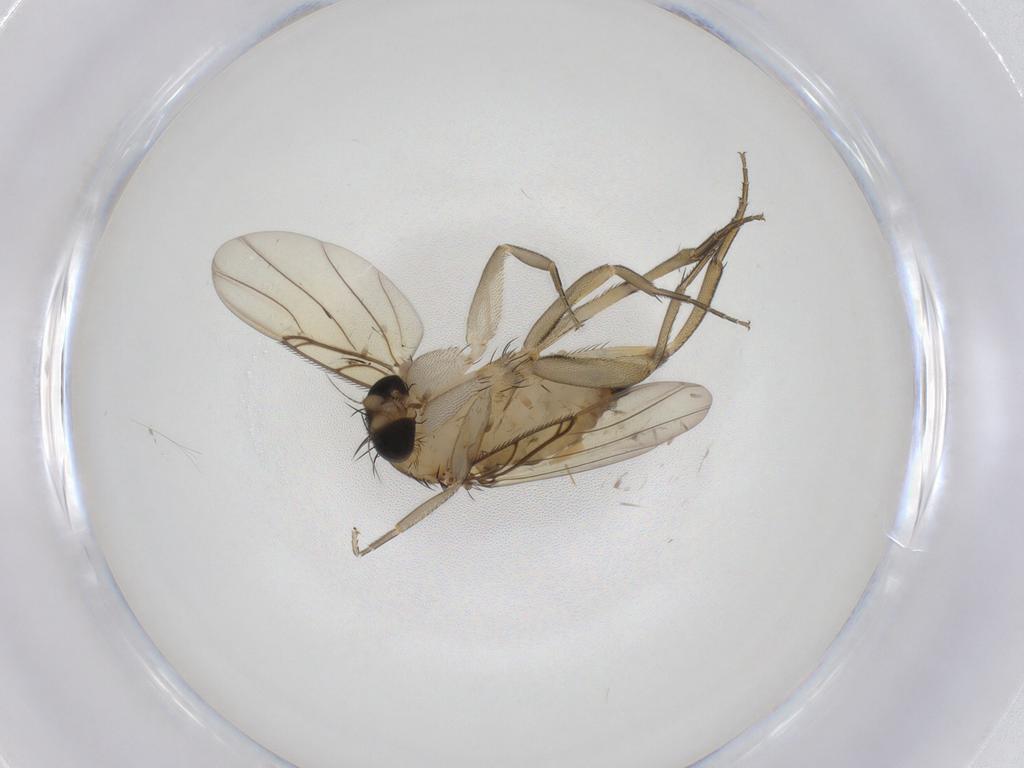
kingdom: Animalia
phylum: Arthropoda
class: Insecta
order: Diptera
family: Phoridae
